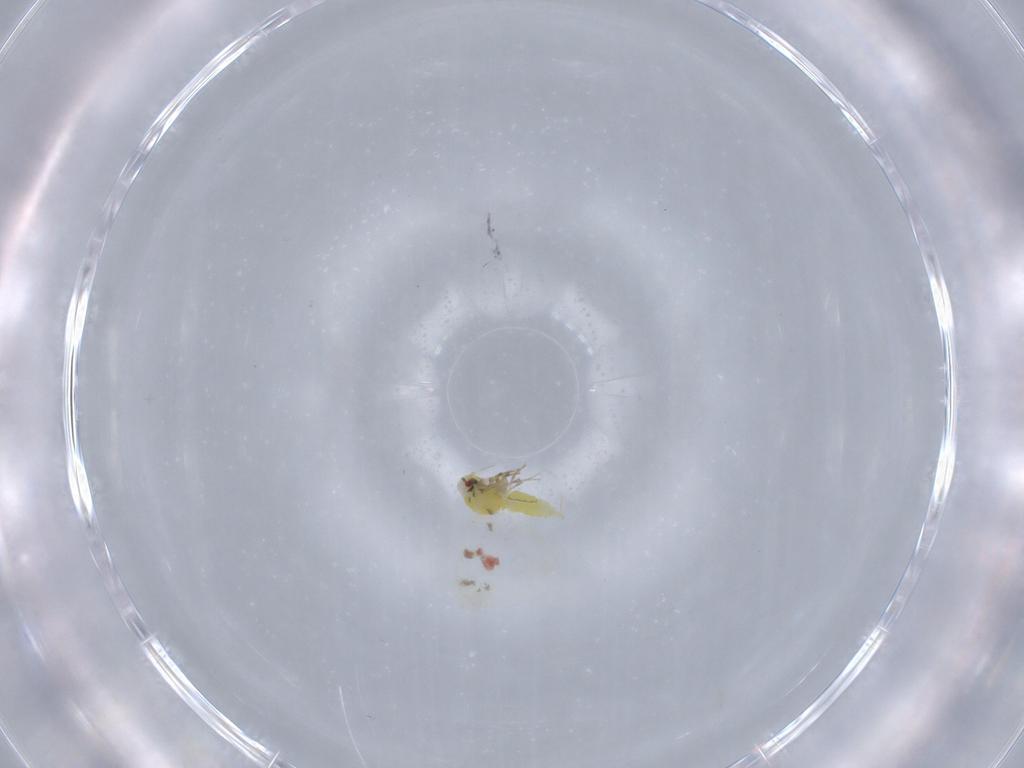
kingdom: Animalia
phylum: Arthropoda
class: Insecta
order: Hemiptera
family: Aleyrodidae
